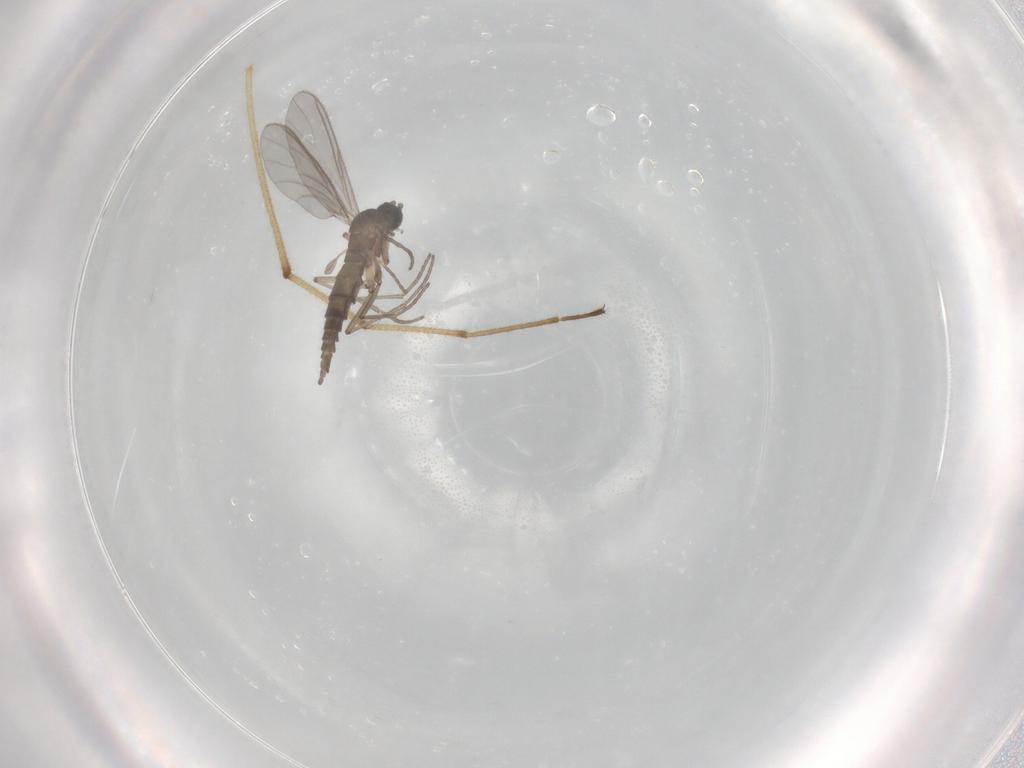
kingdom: Animalia
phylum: Arthropoda
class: Insecta
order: Diptera
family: Sciaridae
